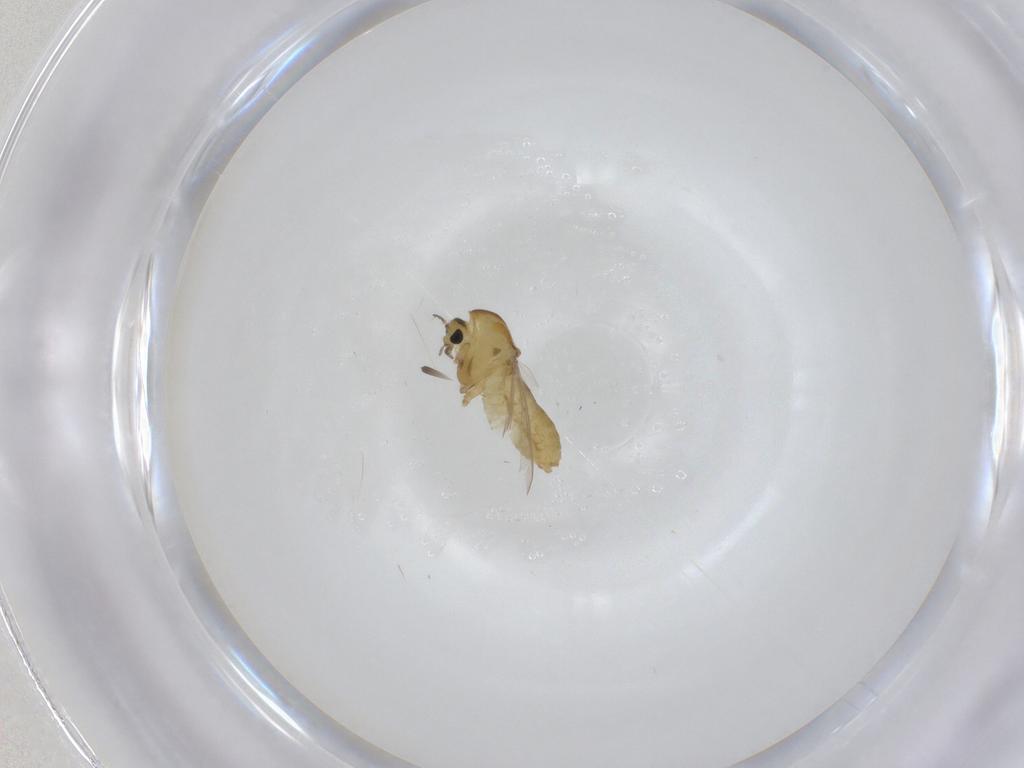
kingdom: Animalia
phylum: Arthropoda
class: Insecta
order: Diptera
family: Chironomidae
